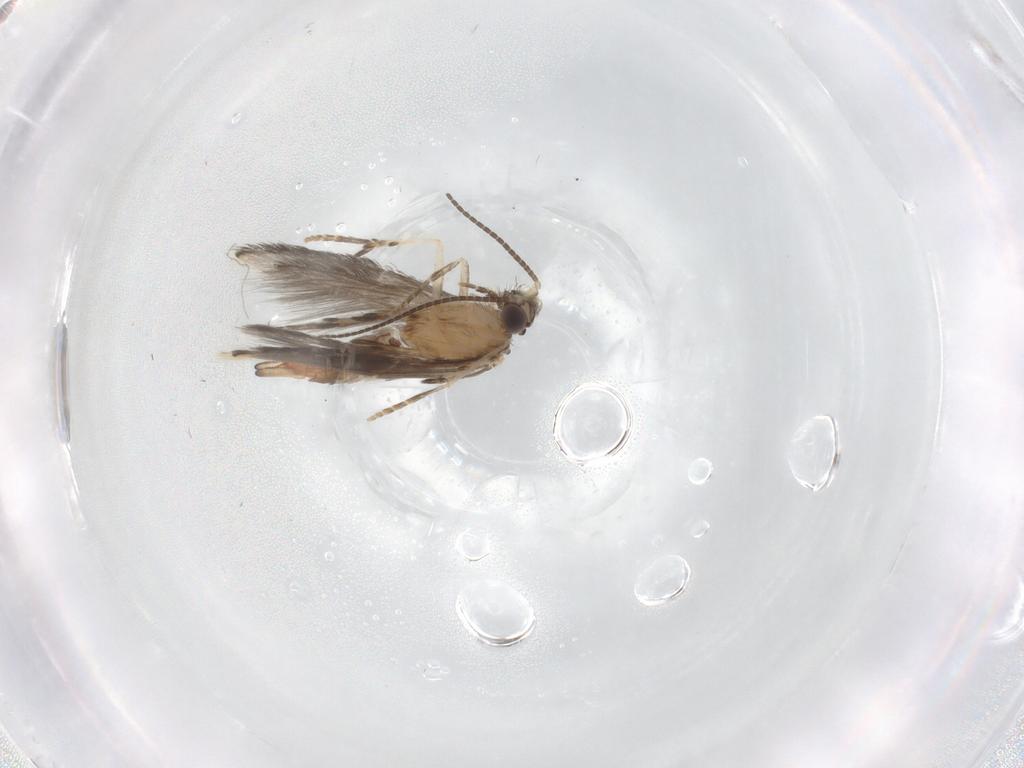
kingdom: Animalia
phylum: Arthropoda
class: Insecta
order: Trichoptera
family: Hydroptilidae
